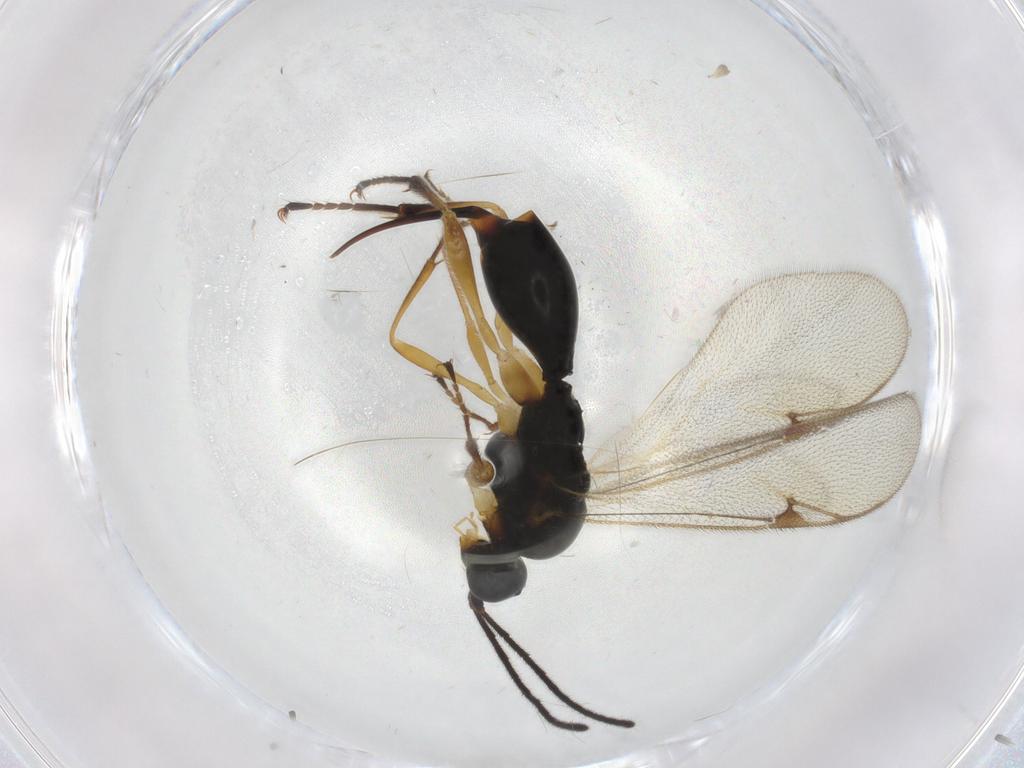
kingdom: Animalia
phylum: Arthropoda
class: Insecta
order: Hymenoptera
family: Proctotrupidae
